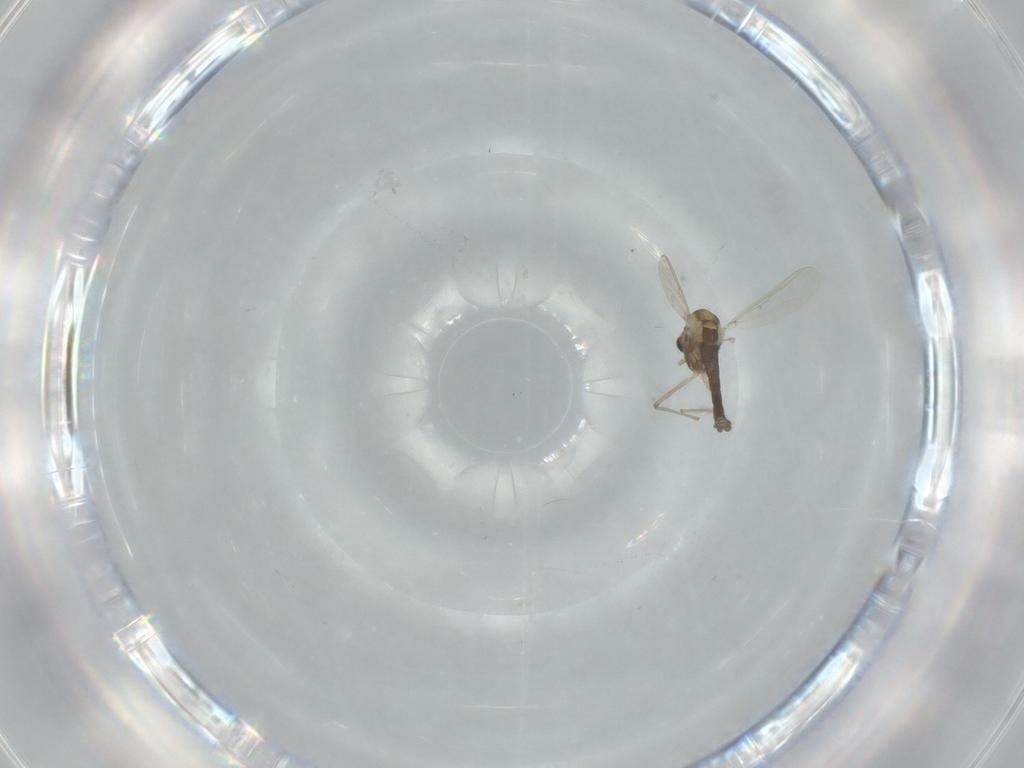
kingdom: Animalia
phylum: Arthropoda
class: Insecta
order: Diptera
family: Chironomidae
